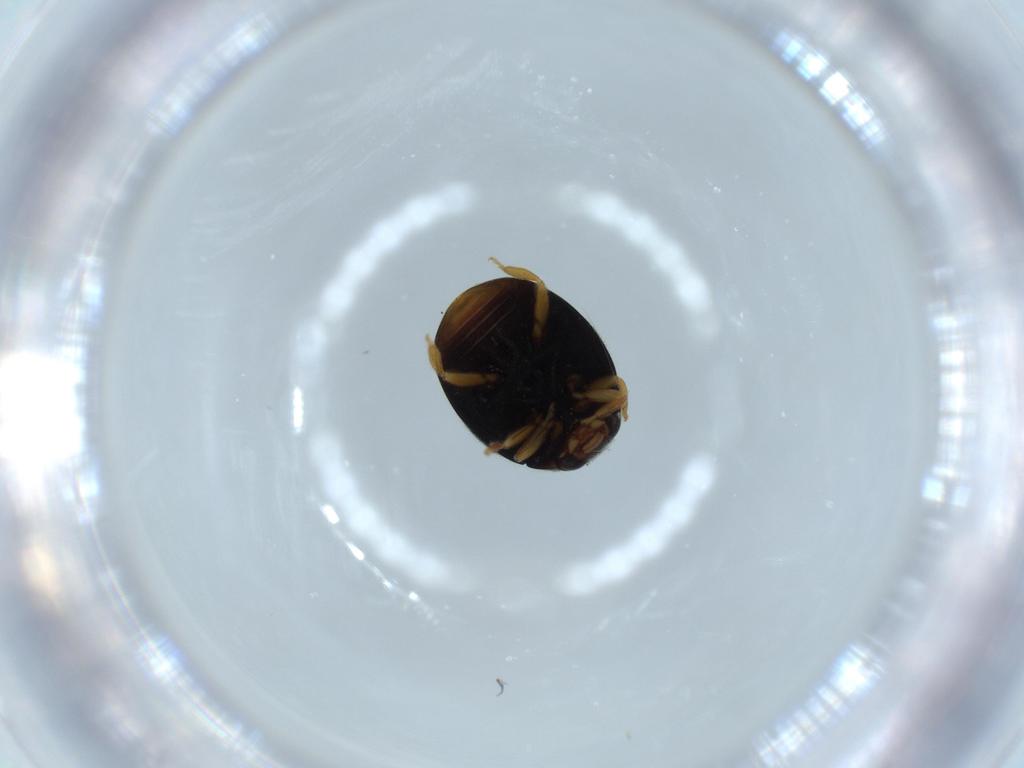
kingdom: Animalia
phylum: Arthropoda
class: Insecta
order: Coleoptera
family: Coccinellidae
